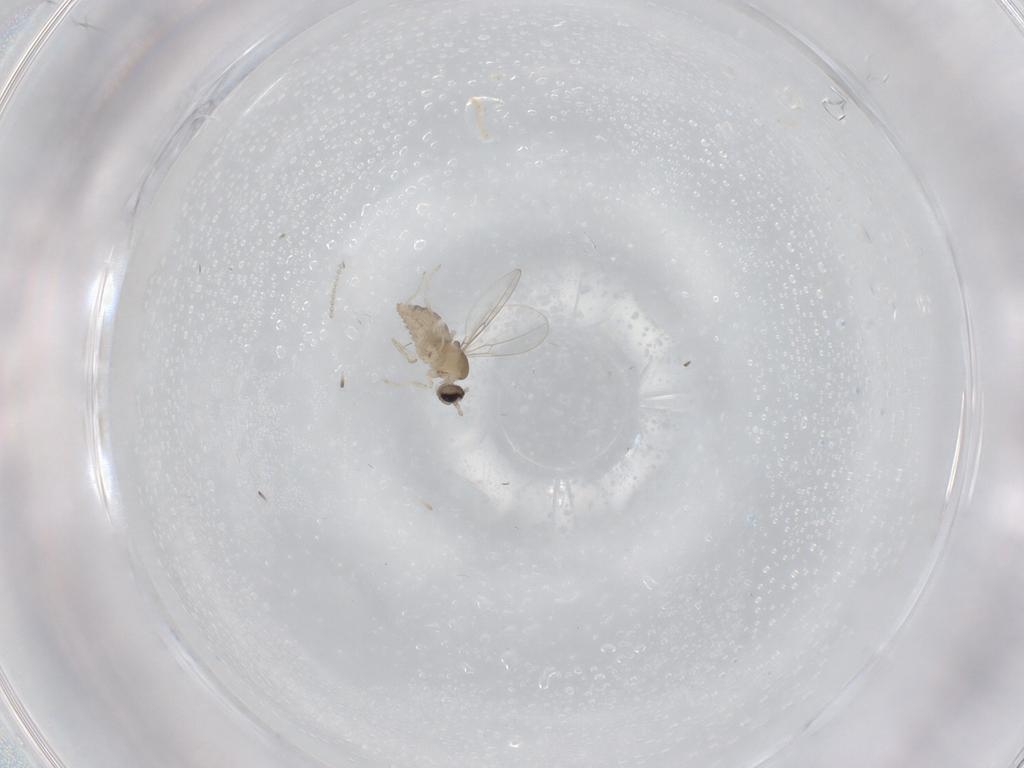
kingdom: Animalia
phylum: Arthropoda
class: Insecta
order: Diptera
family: Cecidomyiidae
